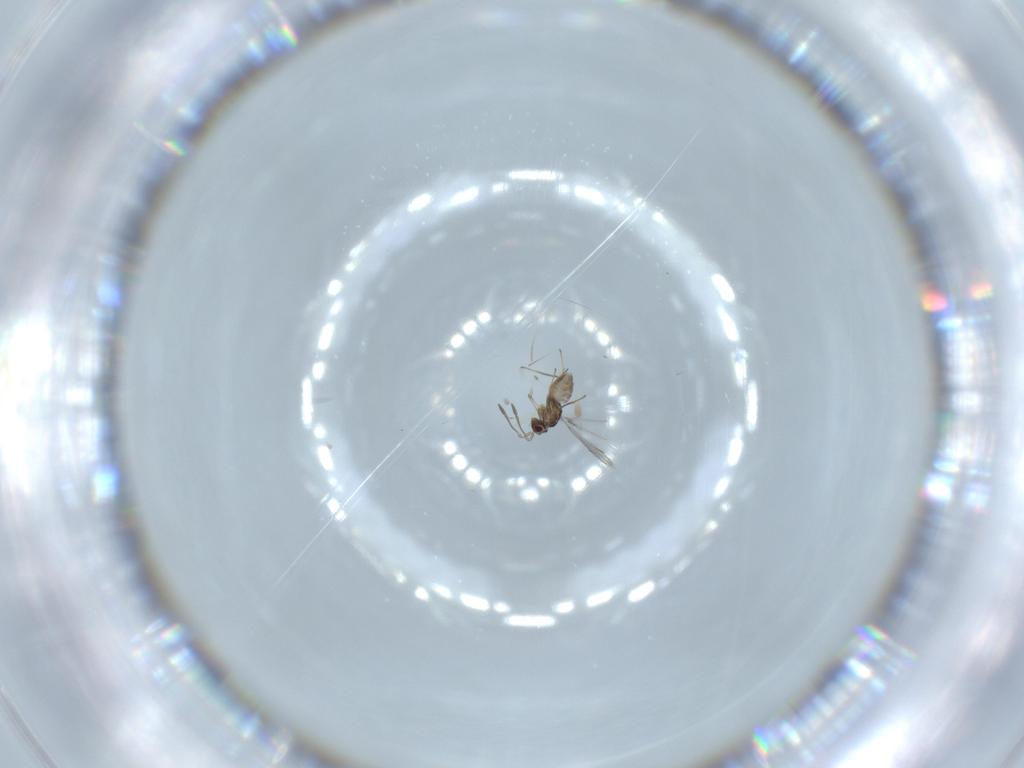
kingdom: Animalia
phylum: Arthropoda
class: Insecta
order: Hymenoptera
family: Mymaridae
